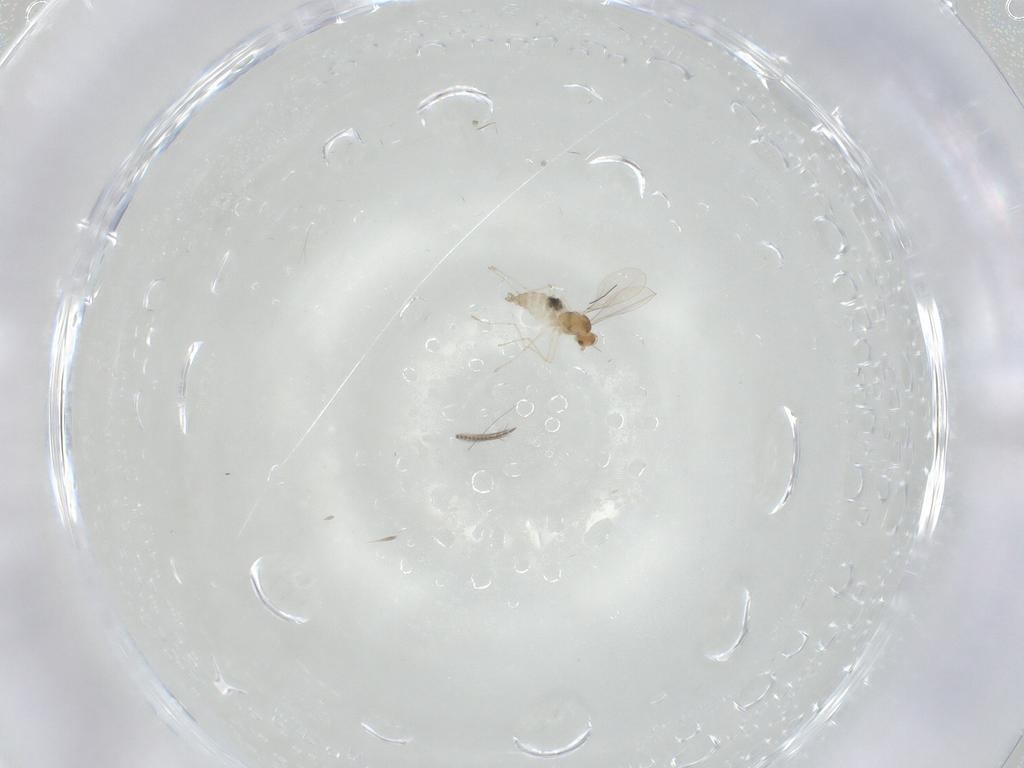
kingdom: Animalia
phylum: Arthropoda
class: Insecta
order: Diptera
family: Ceratopogonidae
